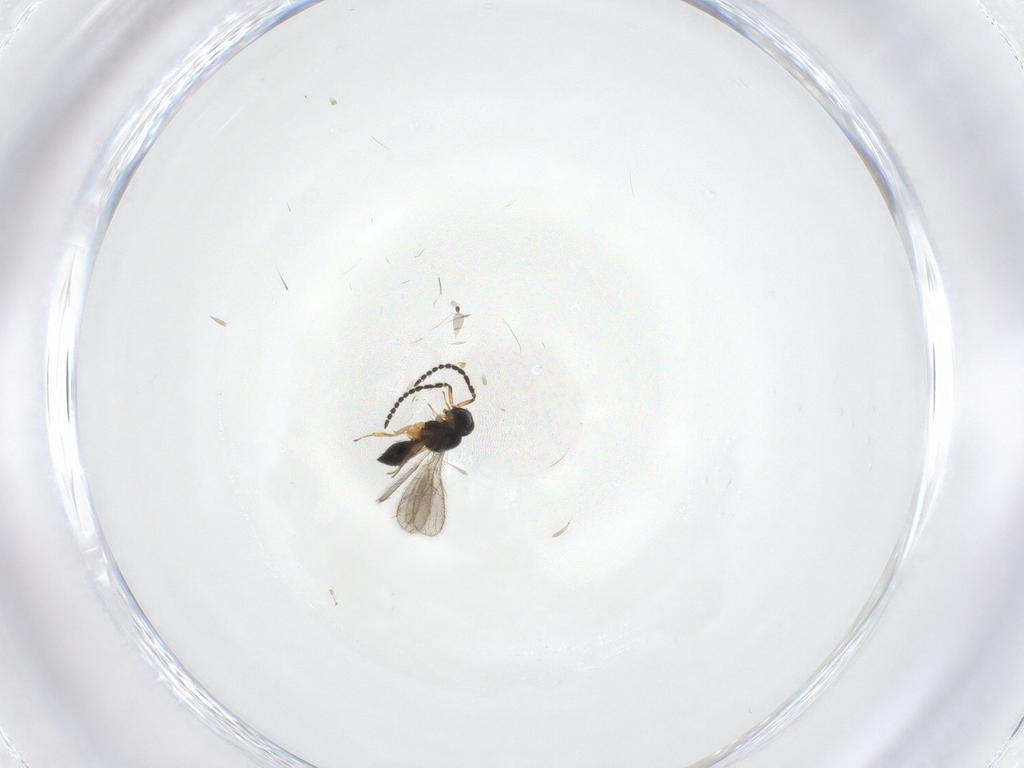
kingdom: Animalia
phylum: Arthropoda
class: Insecta
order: Hymenoptera
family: Scelionidae
